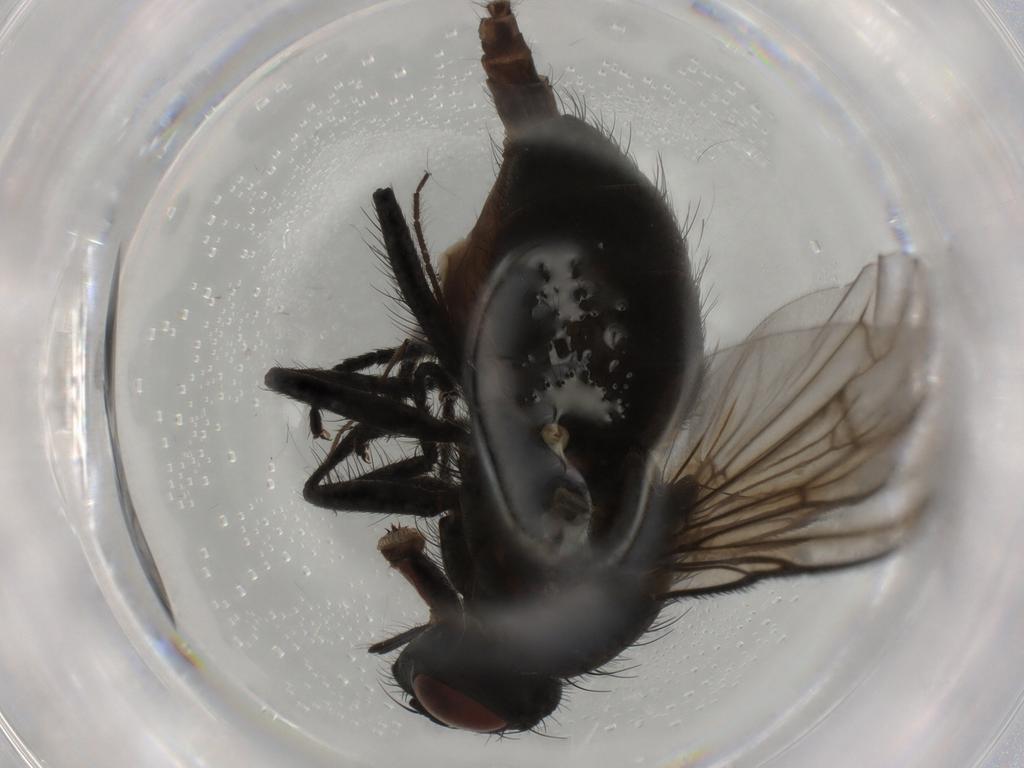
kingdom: Animalia
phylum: Arthropoda
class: Insecta
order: Diptera
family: Muscidae
